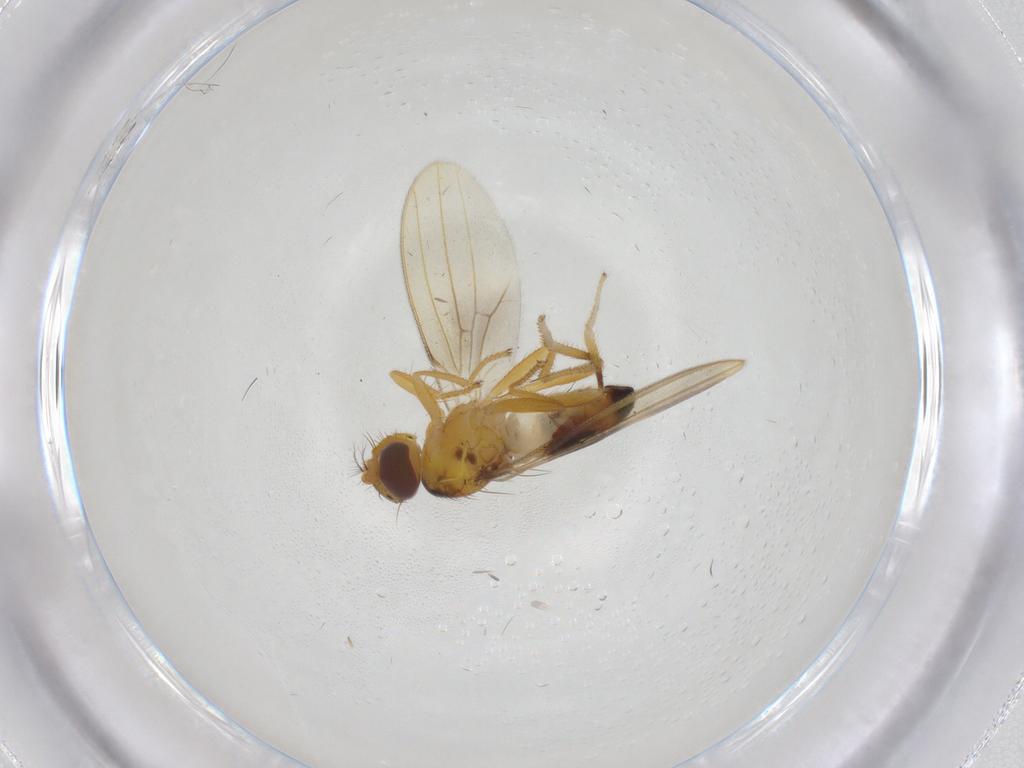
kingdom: Animalia
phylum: Arthropoda
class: Insecta
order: Diptera
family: Periscelididae
